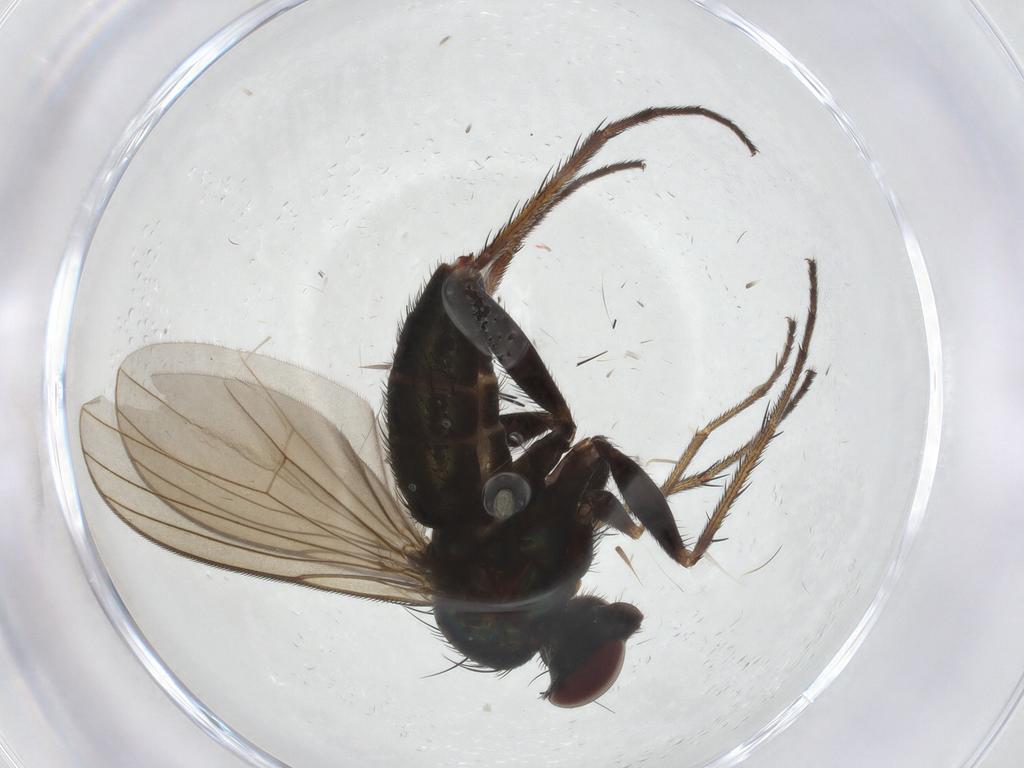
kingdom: Animalia
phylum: Arthropoda
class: Insecta
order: Diptera
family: Dolichopodidae
